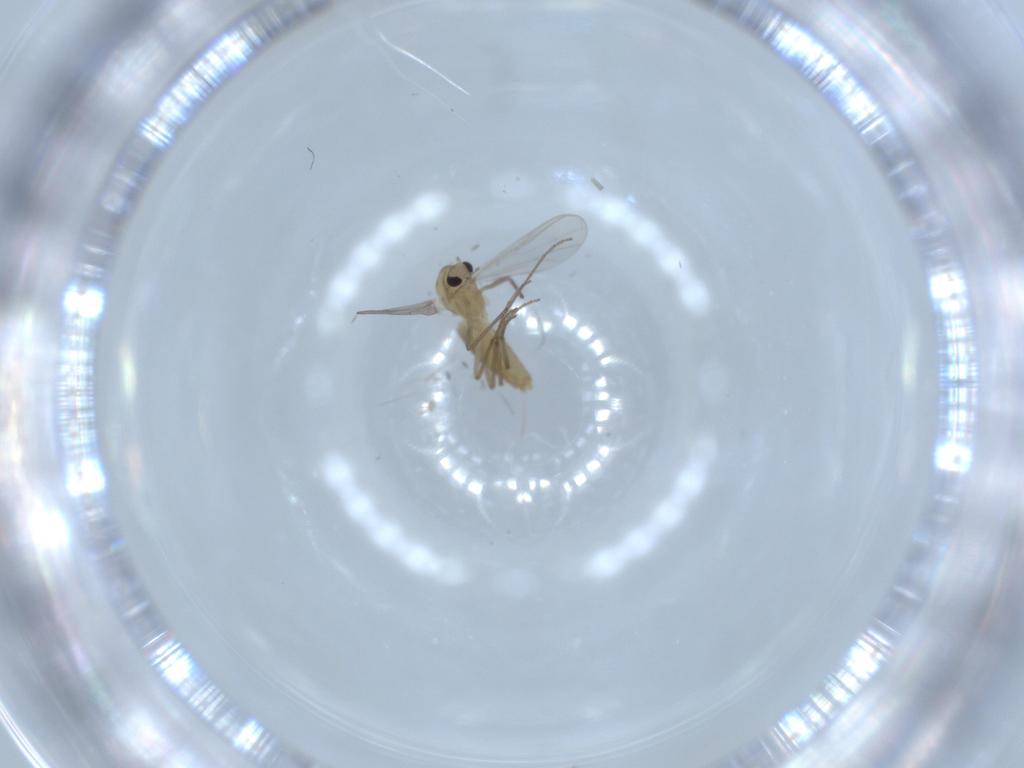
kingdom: Animalia
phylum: Arthropoda
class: Insecta
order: Diptera
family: Chironomidae
